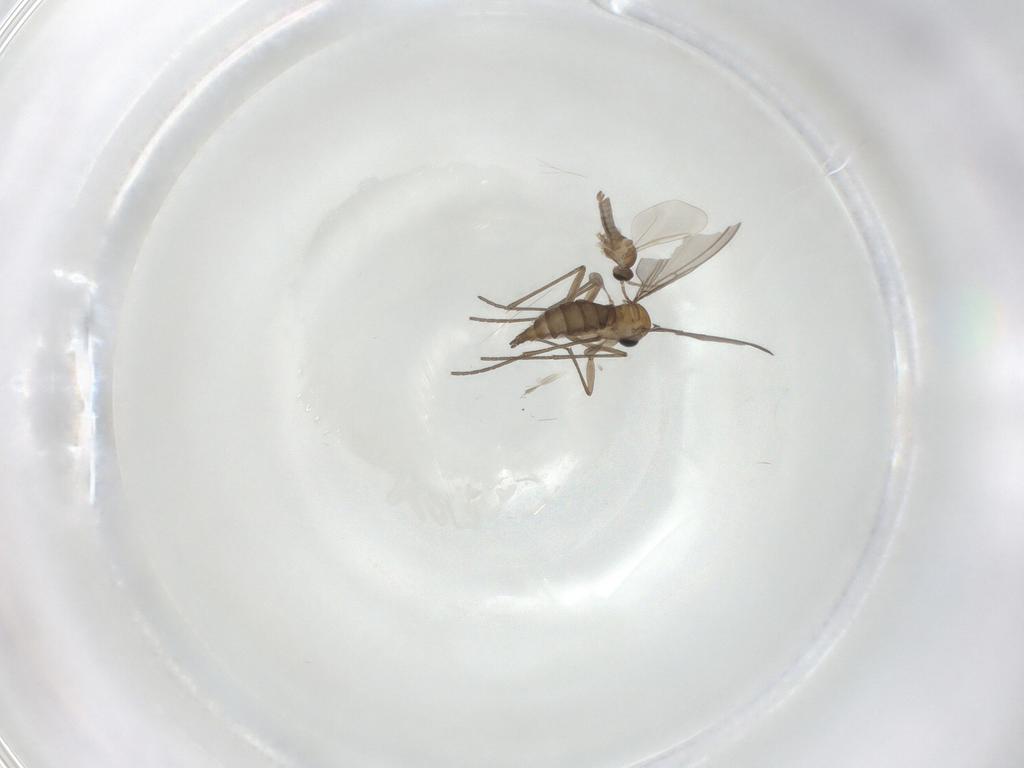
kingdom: Animalia
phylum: Arthropoda
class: Insecta
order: Diptera
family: Sciaridae
